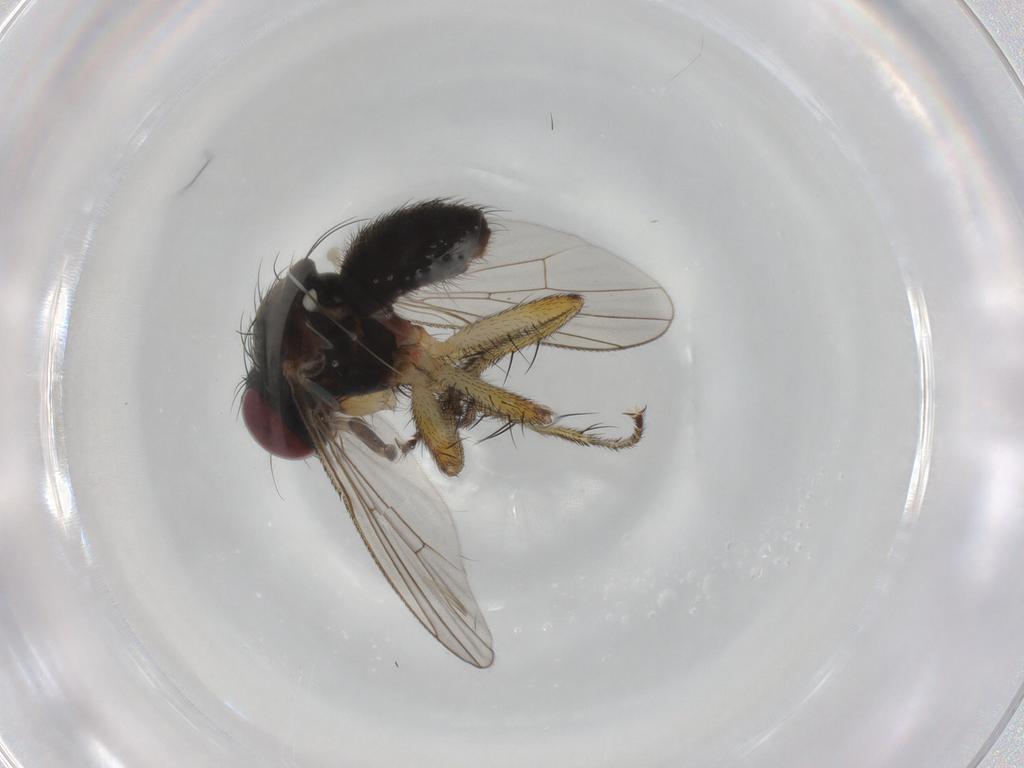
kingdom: Animalia
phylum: Arthropoda
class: Insecta
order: Diptera
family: Muscidae
